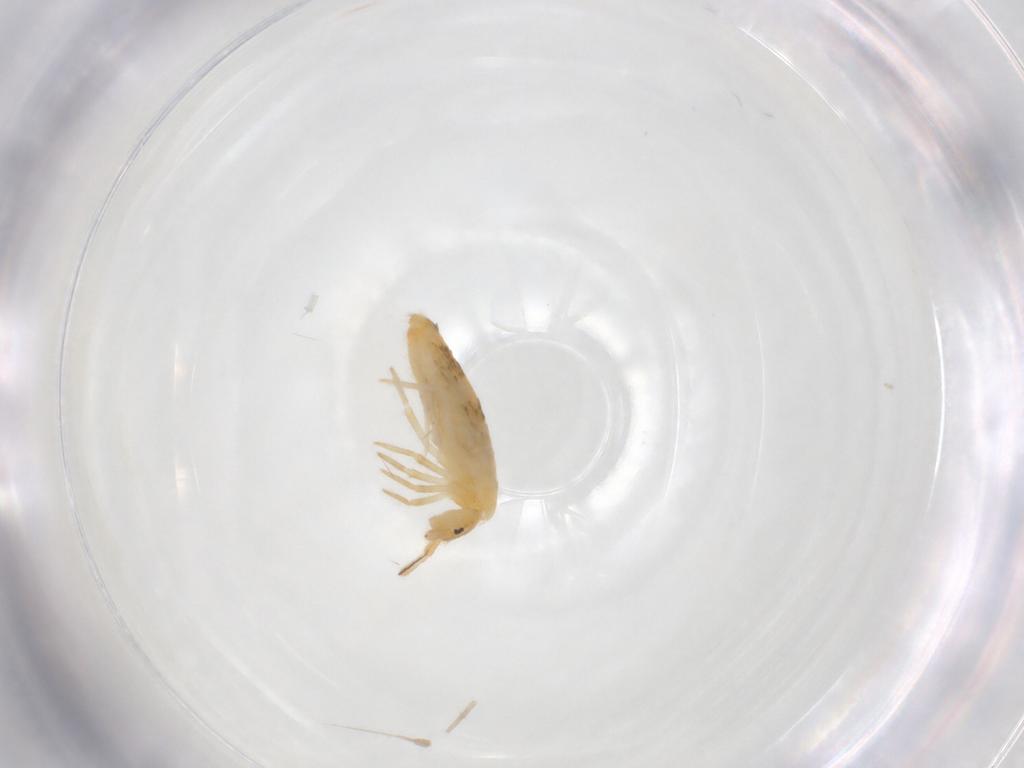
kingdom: Animalia
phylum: Arthropoda
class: Collembola
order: Entomobryomorpha
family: Entomobryidae
